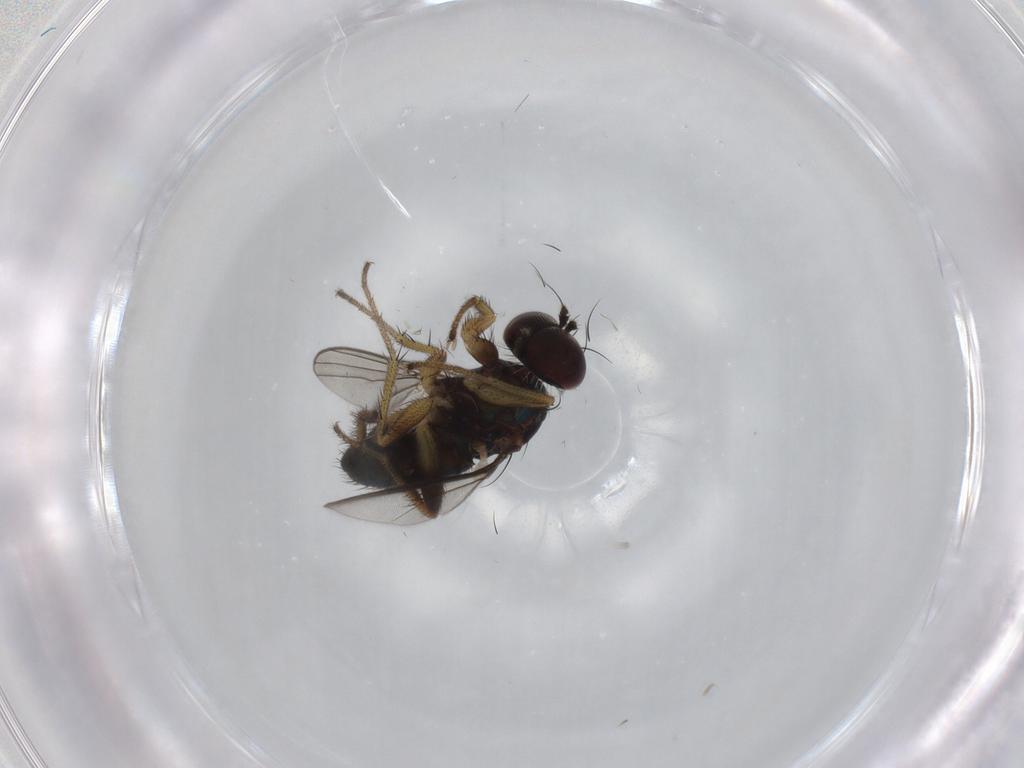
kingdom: Animalia
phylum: Arthropoda
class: Insecta
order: Diptera
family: Dolichopodidae
